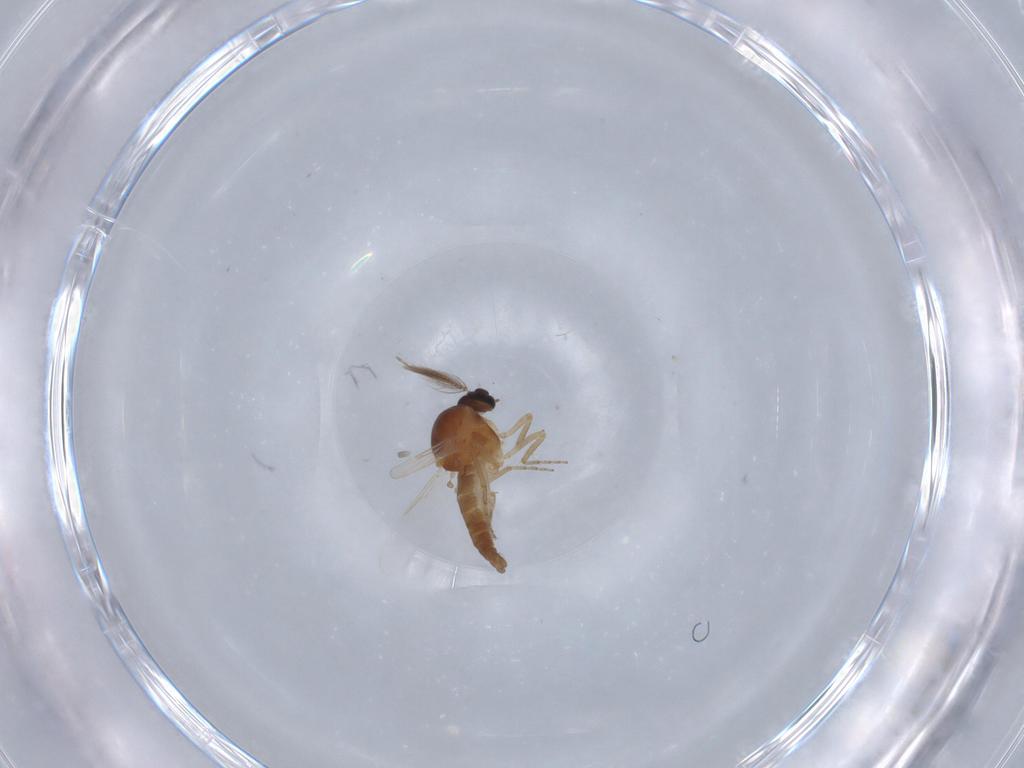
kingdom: Animalia
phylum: Arthropoda
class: Insecta
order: Diptera
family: Ceratopogonidae
